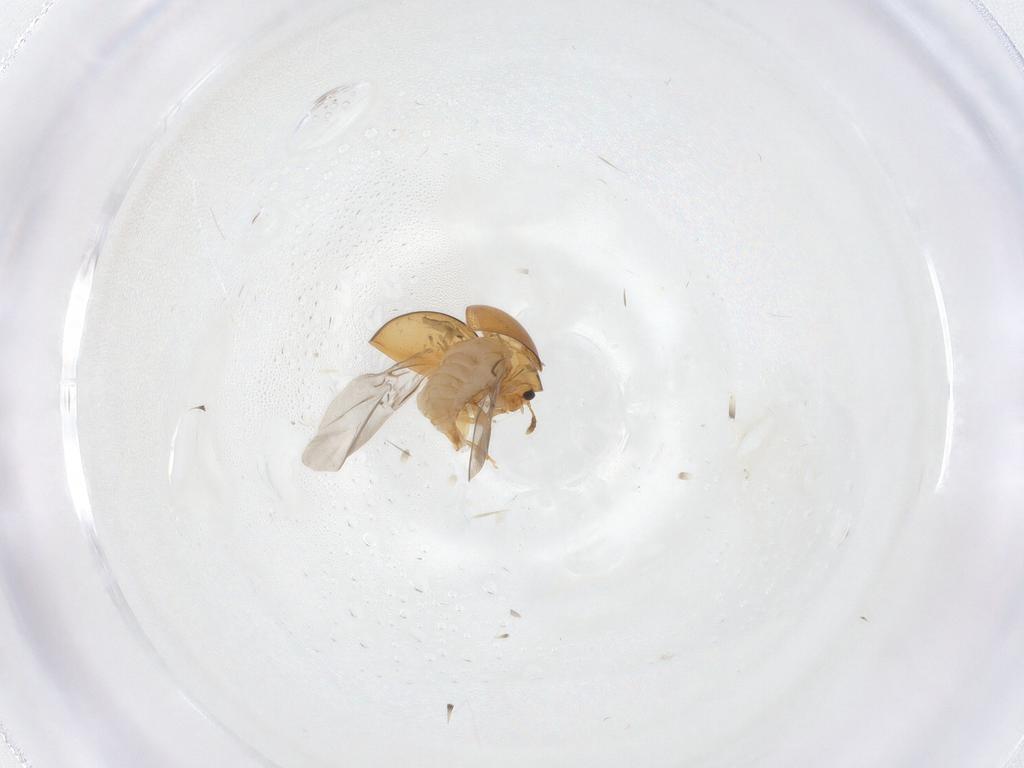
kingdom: Animalia
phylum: Arthropoda
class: Insecta
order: Coleoptera
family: Phalacridae
